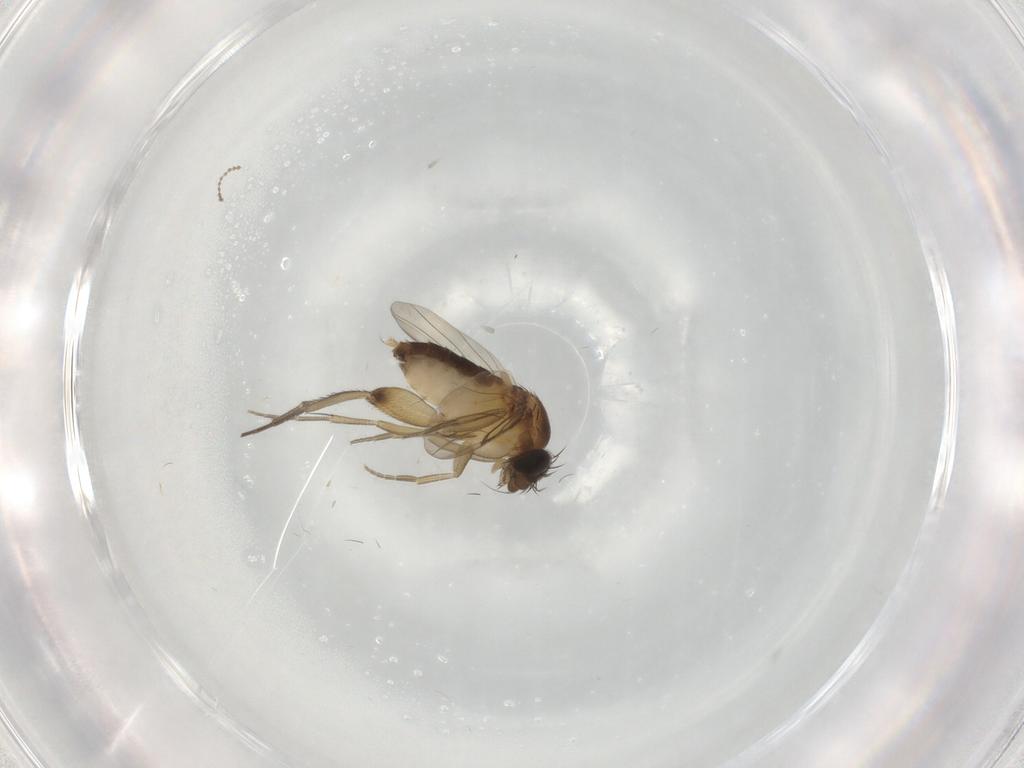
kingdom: Animalia
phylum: Arthropoda
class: Insecta
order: Diptera
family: Phoridae
